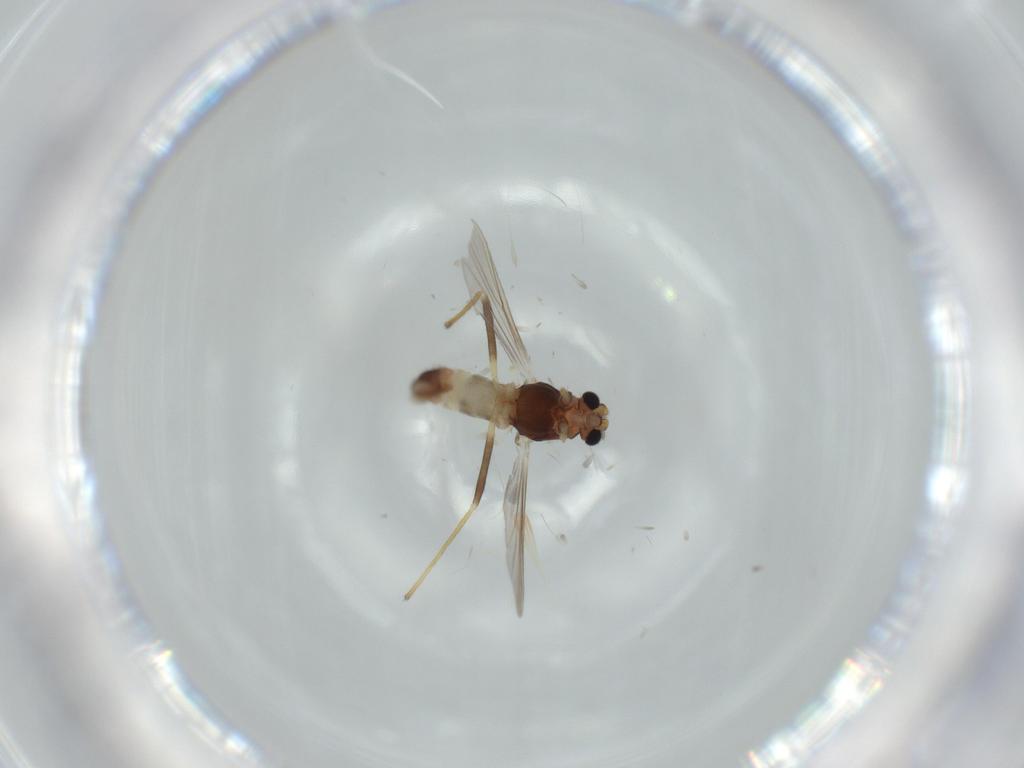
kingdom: Animalia
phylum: Arthropoda
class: Insecta
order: Diptera
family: Chironomidae
